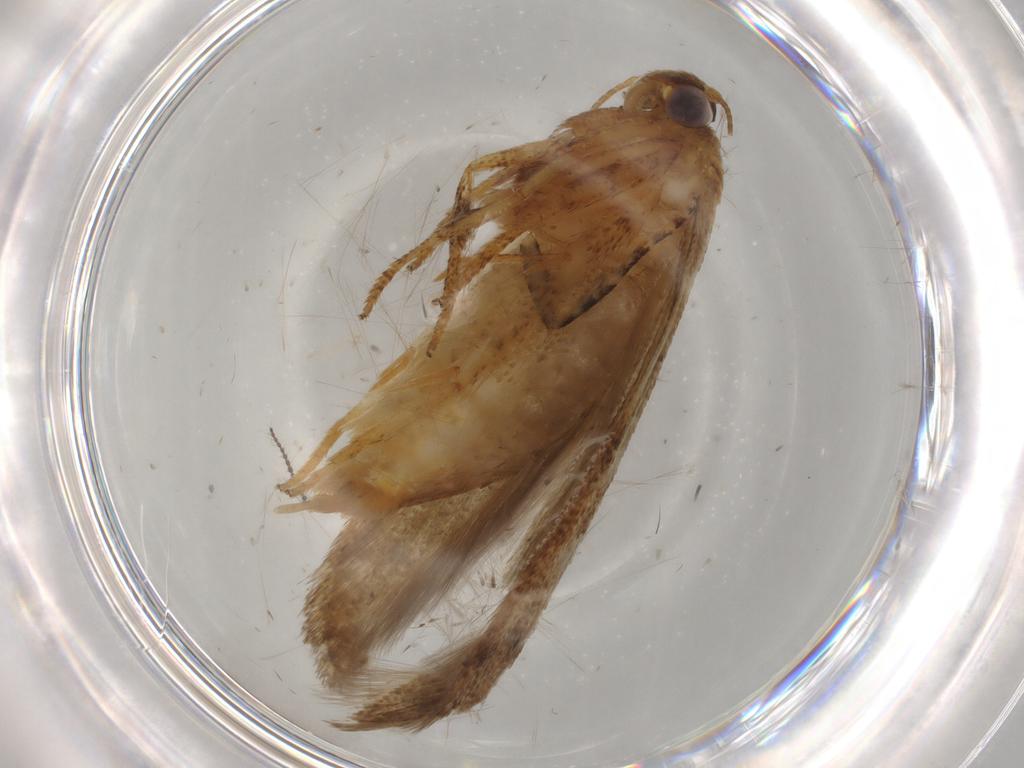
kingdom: Animalia
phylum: Arthropoda
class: Insecta
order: Lepidoptera
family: Blastobasidae
